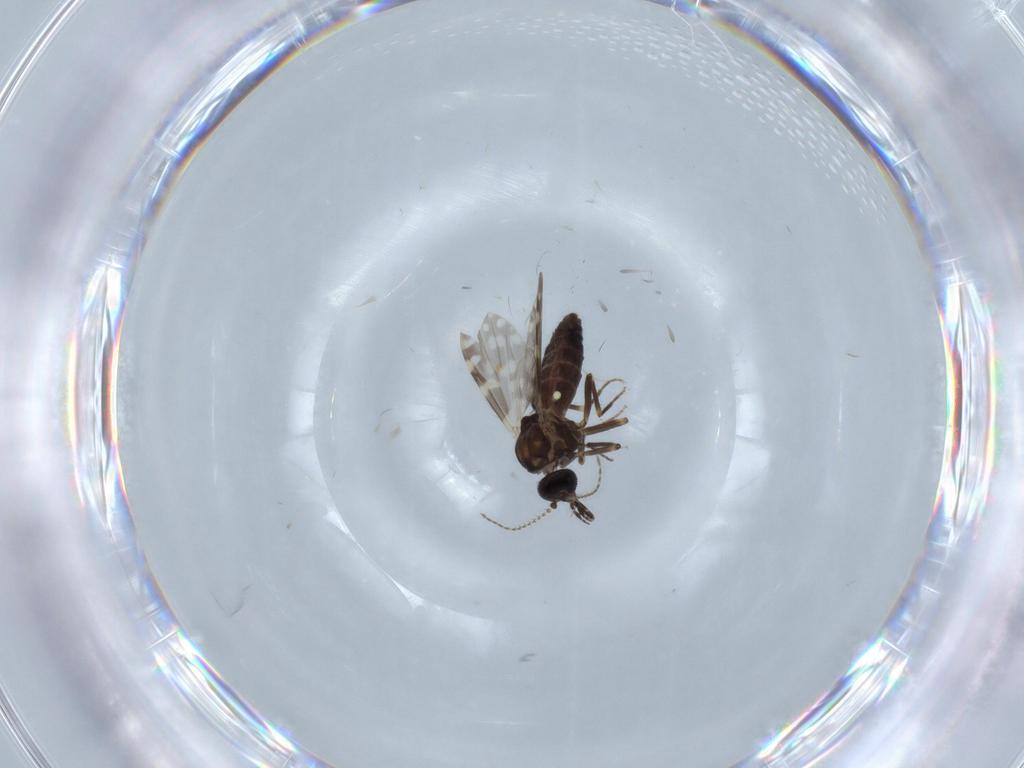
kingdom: Animalia
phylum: Arthropoda
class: Insecta
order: Diptera
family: Ceratopogonidae
